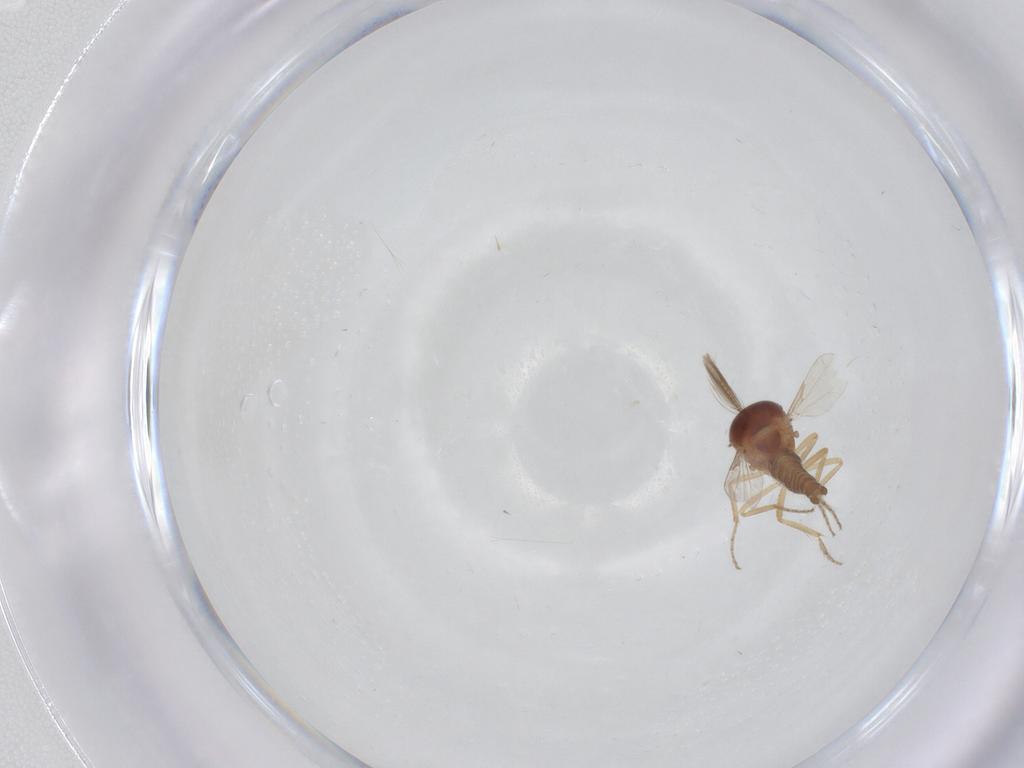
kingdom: Animalia
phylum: Arthropoda
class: Insecta
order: Diptera
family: Ceratopogonidae
